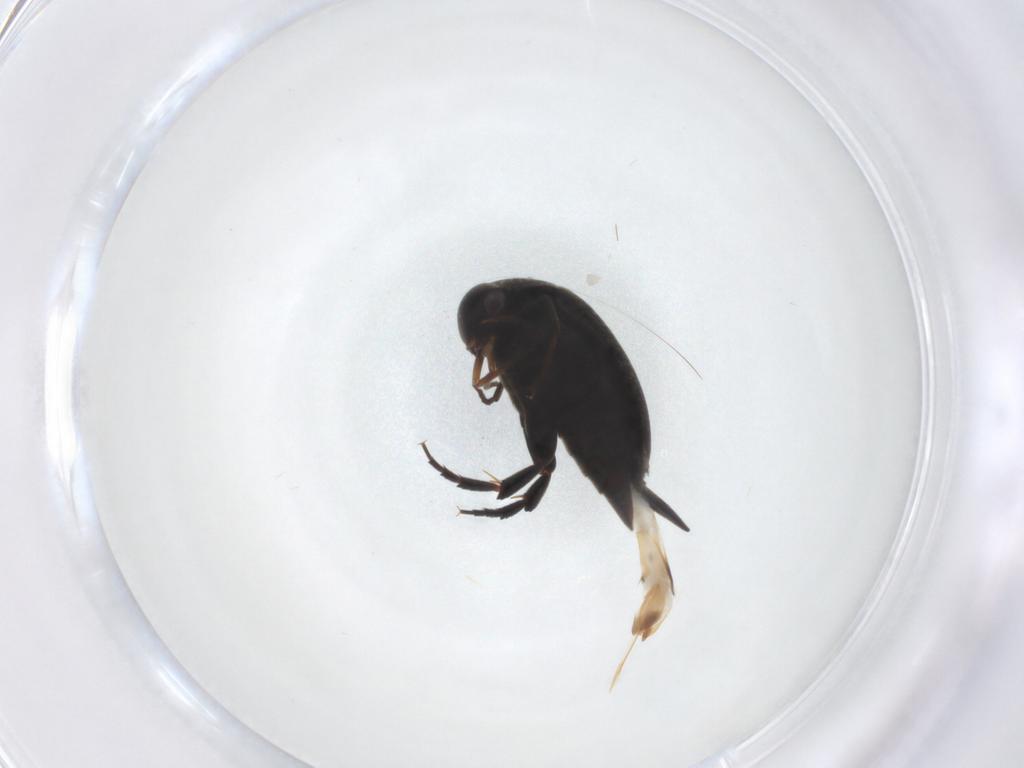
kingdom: Animalia
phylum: Arthropoda
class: Insecta
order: Coleoptera
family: Mordellidae
